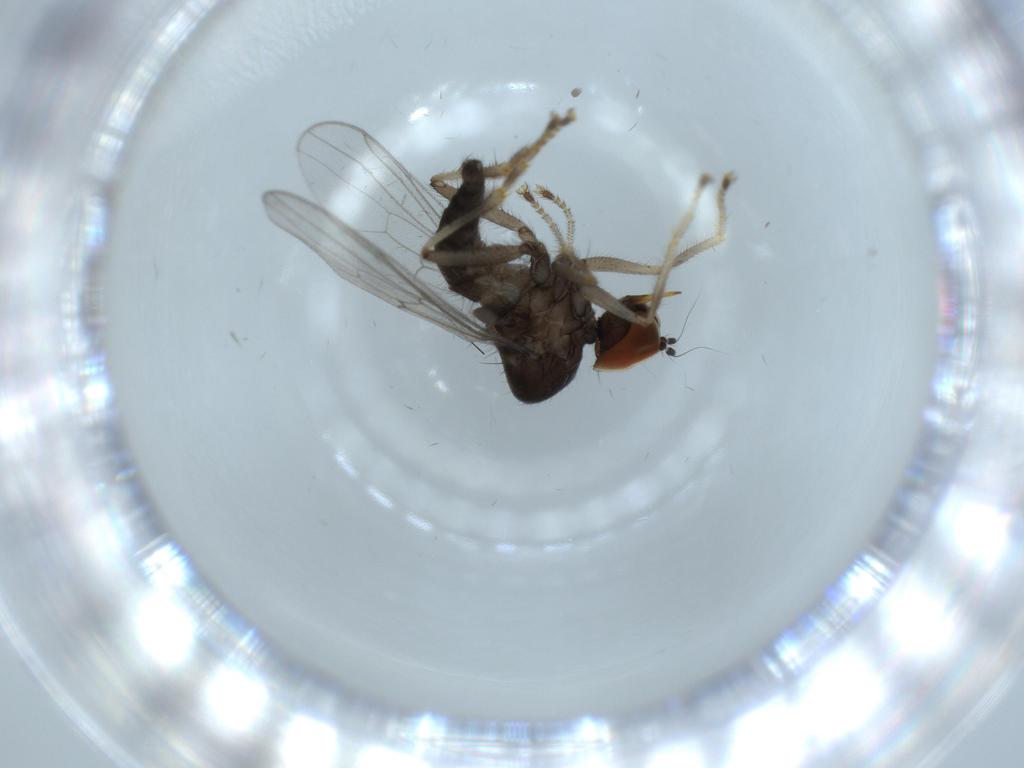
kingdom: Animalia
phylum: Arthropoda
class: Insecta
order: Diptera
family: Hybotidae
